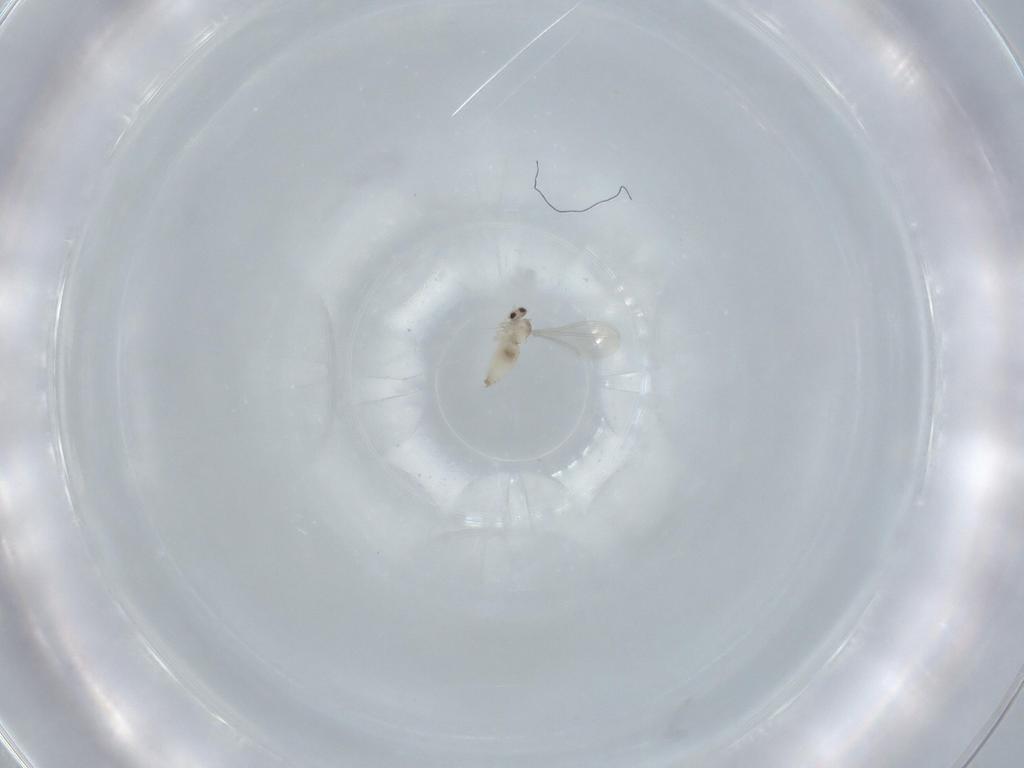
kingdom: Animalia
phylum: Arthropoda
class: Insecta
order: Diptera
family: Cecidomyiidae
